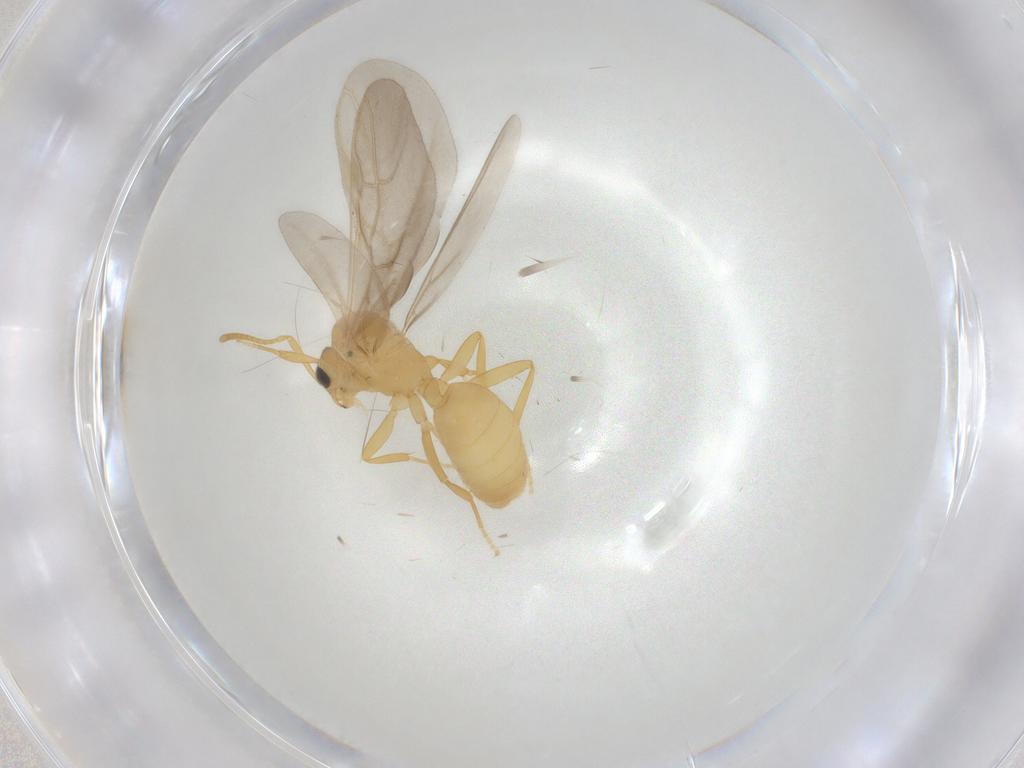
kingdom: Animalia
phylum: Arthropoda
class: Insecta
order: Hymenoptera
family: Formicidae
